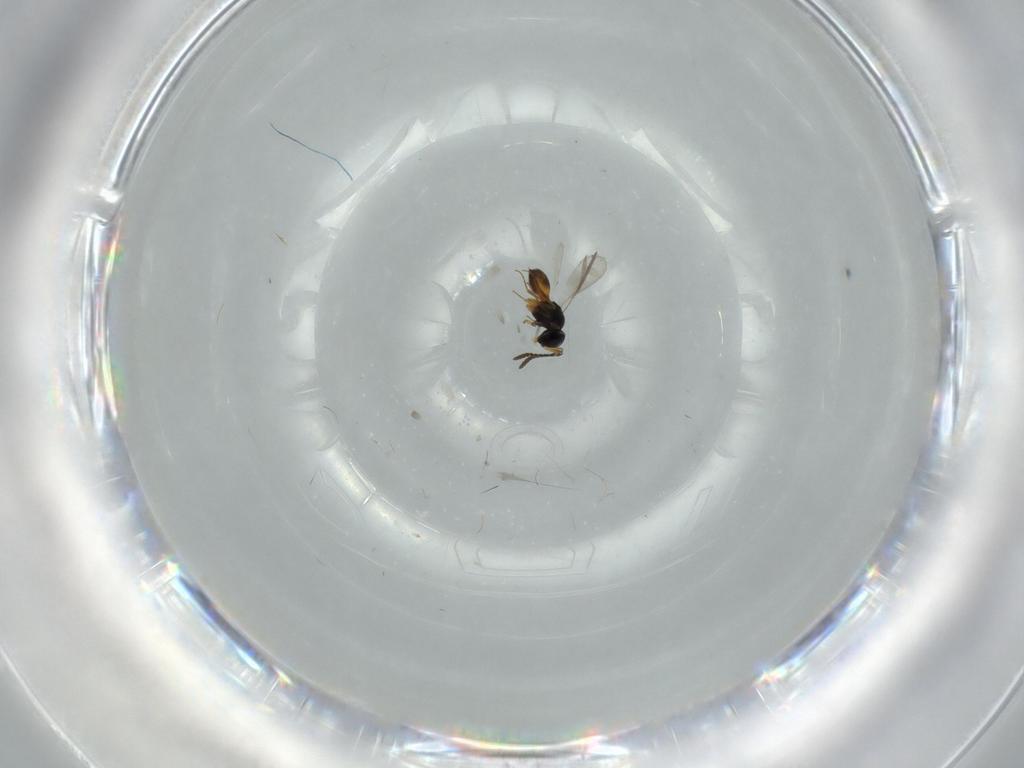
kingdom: Animalia
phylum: Arthropoda
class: Insecta
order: Hymenoptera
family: Scelionidae
